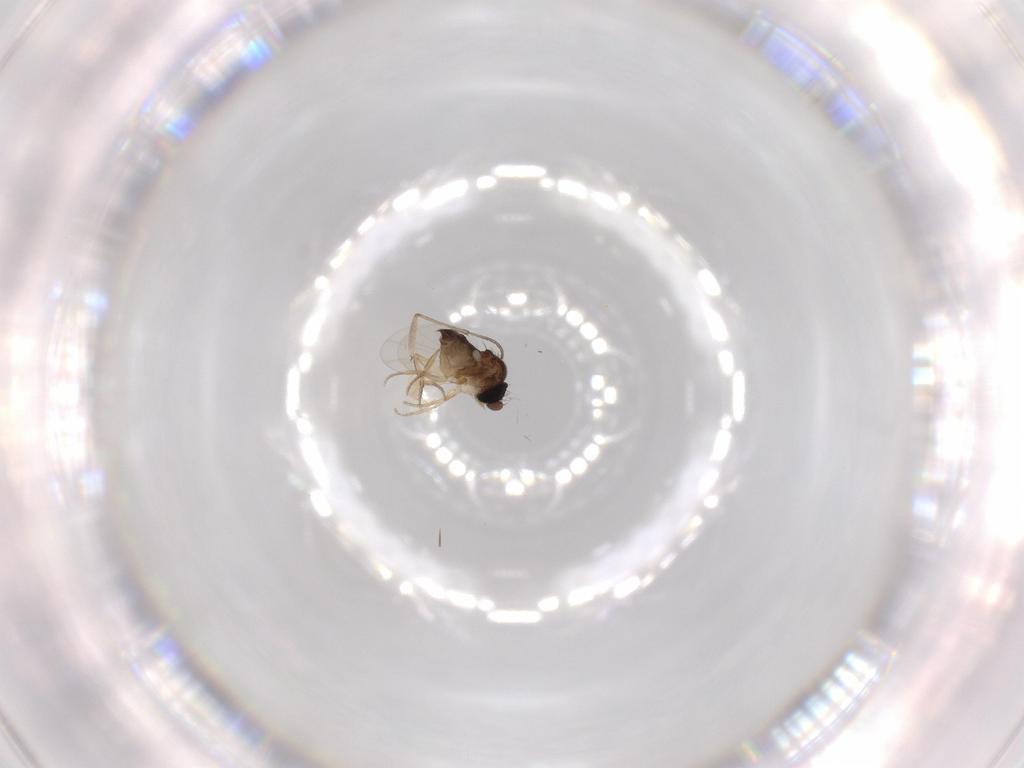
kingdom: Animalia
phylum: Arthropoda
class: Insecta
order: Diptera
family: Phoridae
